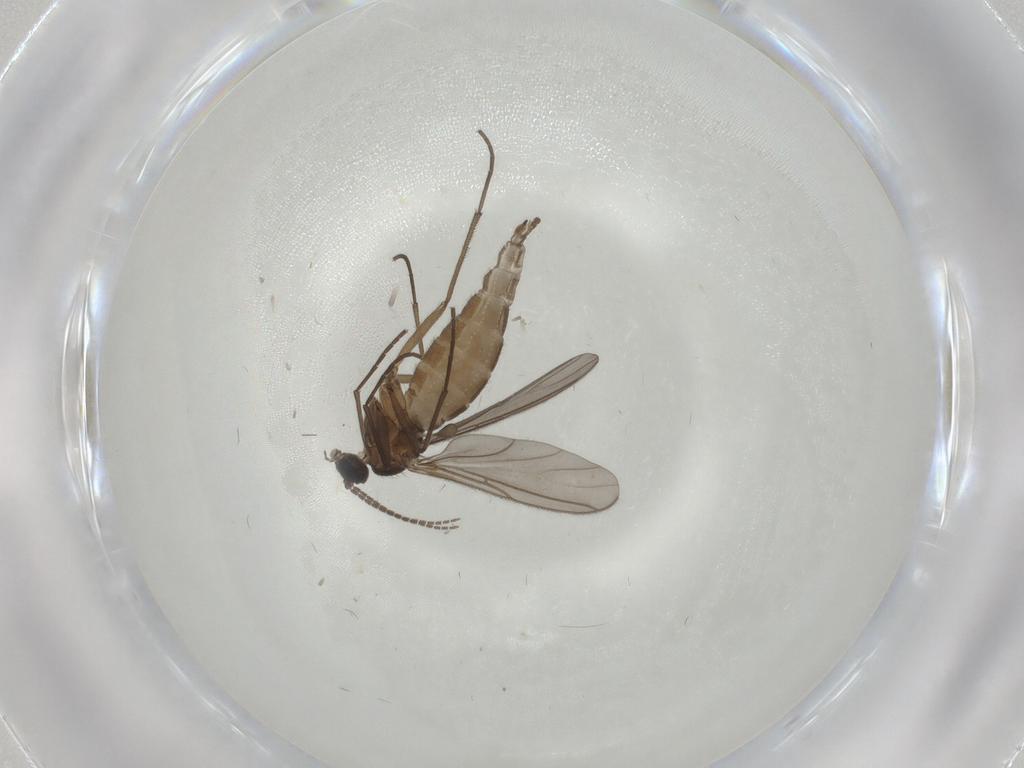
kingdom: Animalia
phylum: Arthropoda
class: Insecta
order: Diptera
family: Sciaridae
